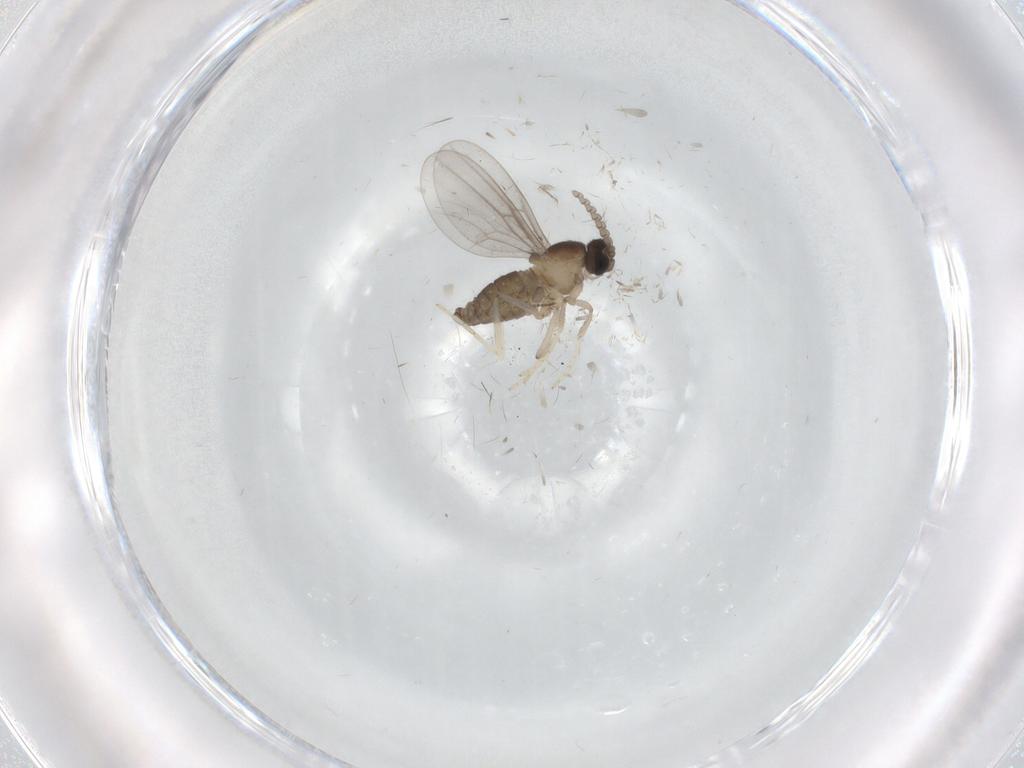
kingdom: Animalia
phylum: Arthropoda
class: Insecta
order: Diptera
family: Cecidomyiidae
